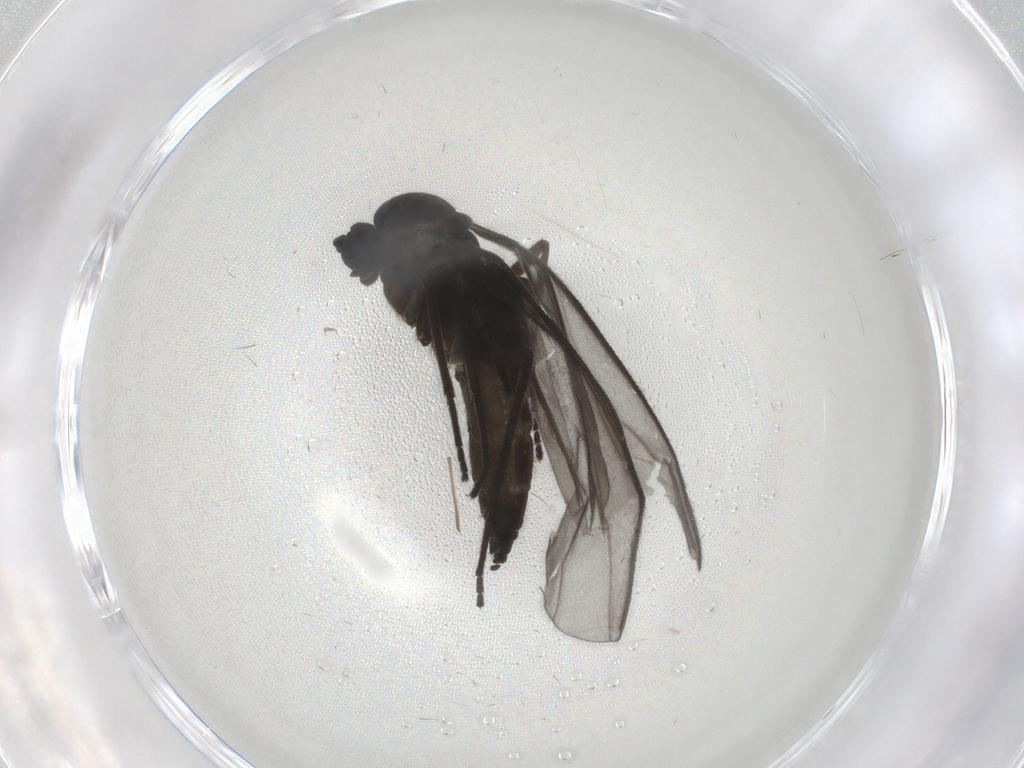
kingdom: Animalia
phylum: Arthropoda
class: Insecta
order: Diptera
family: Sciaridae
